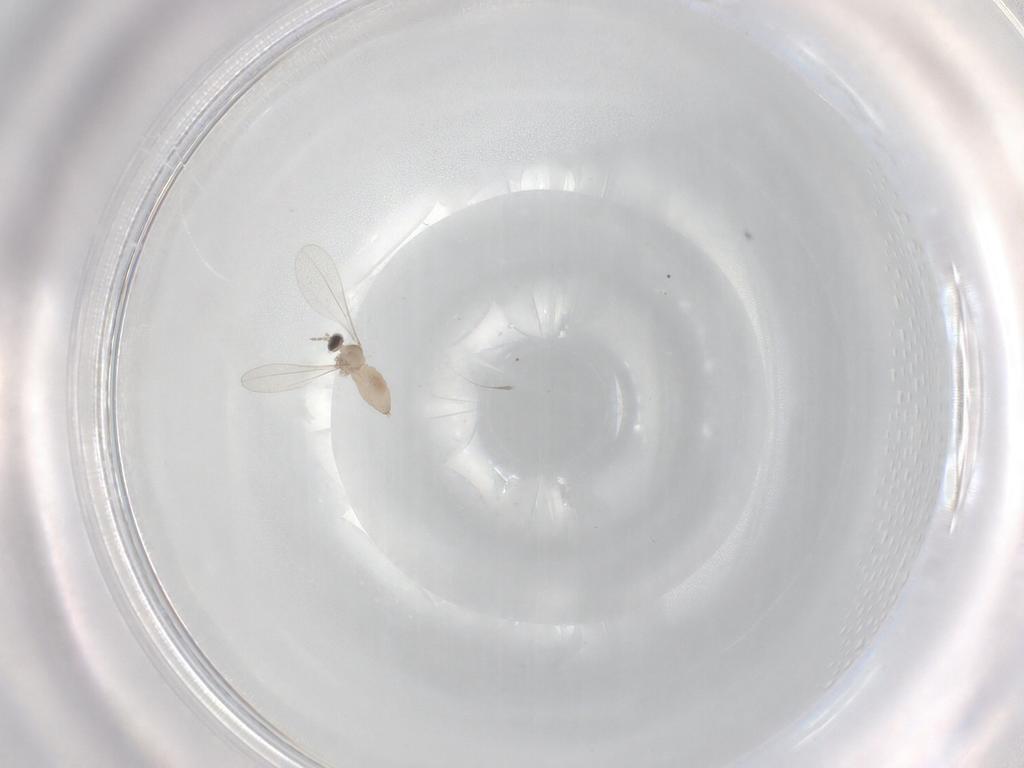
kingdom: Animalia
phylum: Arthropoda
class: Insecta
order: Diptera
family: Cecidomyiidae
